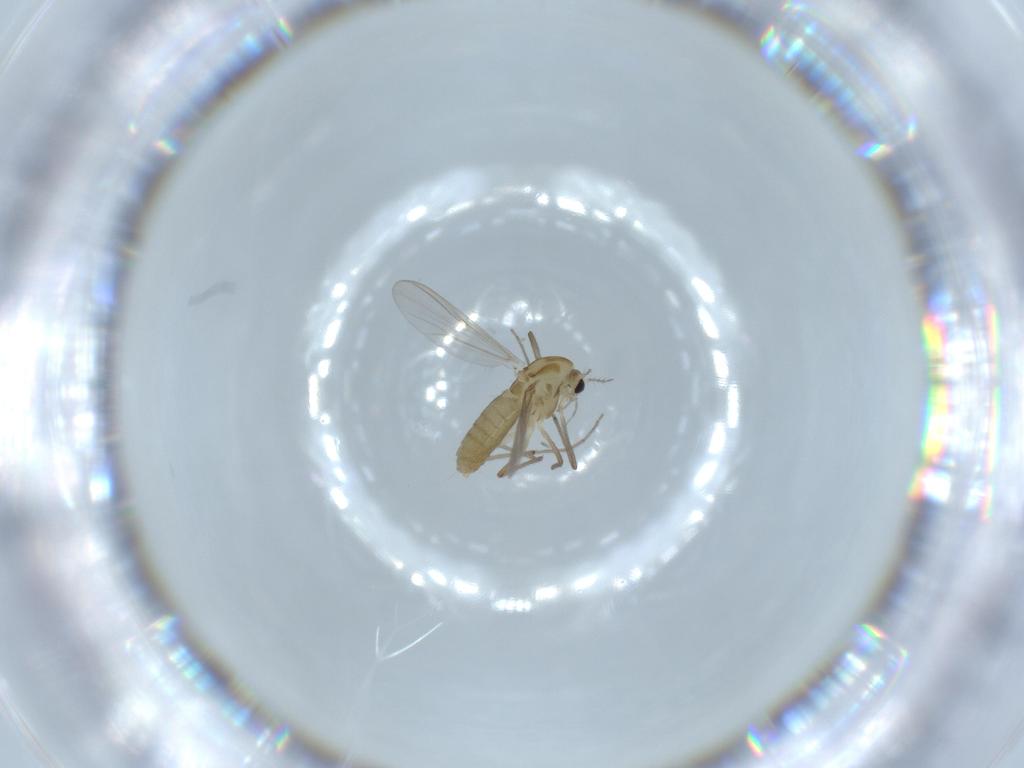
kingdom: Animalia
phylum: Arthropoda
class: Insecta
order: Diptera
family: Chironomidae
